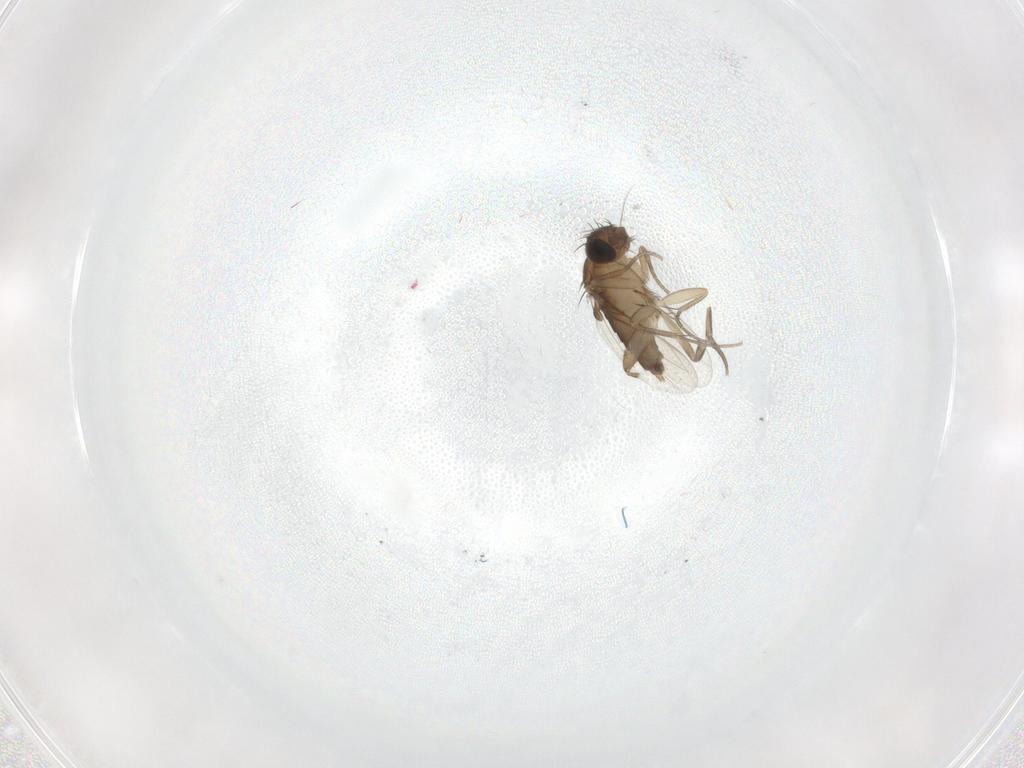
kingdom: Animalia
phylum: Arthropoda
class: Insecta
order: Diptera
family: Phoridae
